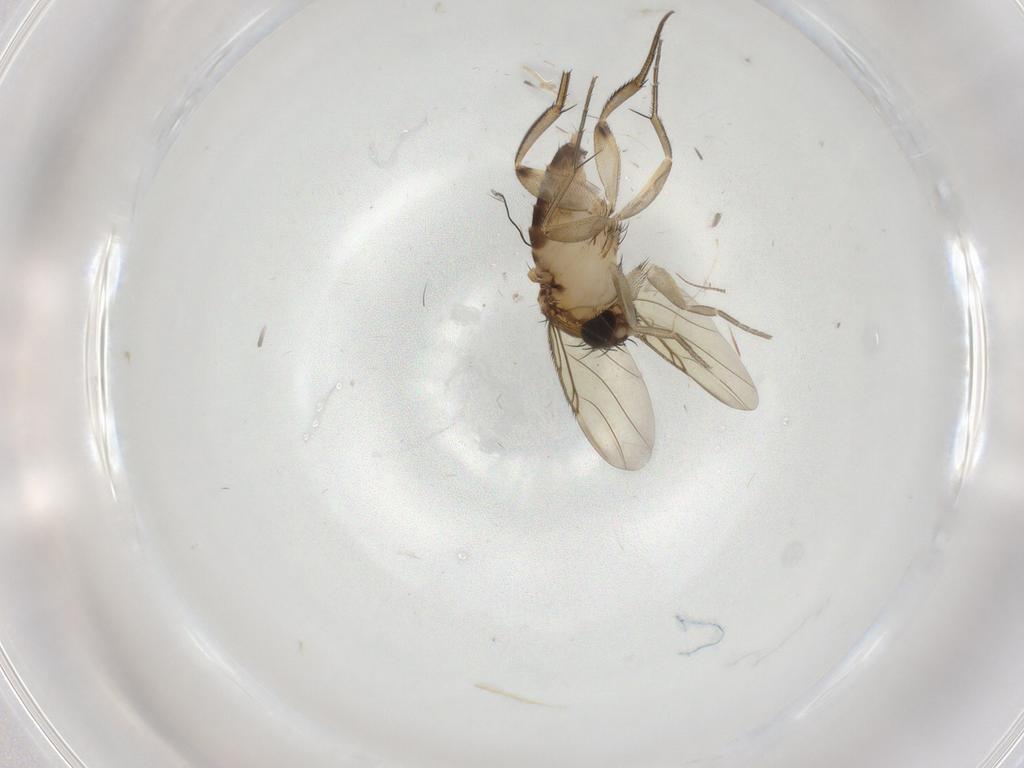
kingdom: Animalia
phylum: Arthropoda
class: Insecta
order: Diptera
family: Phoridae
